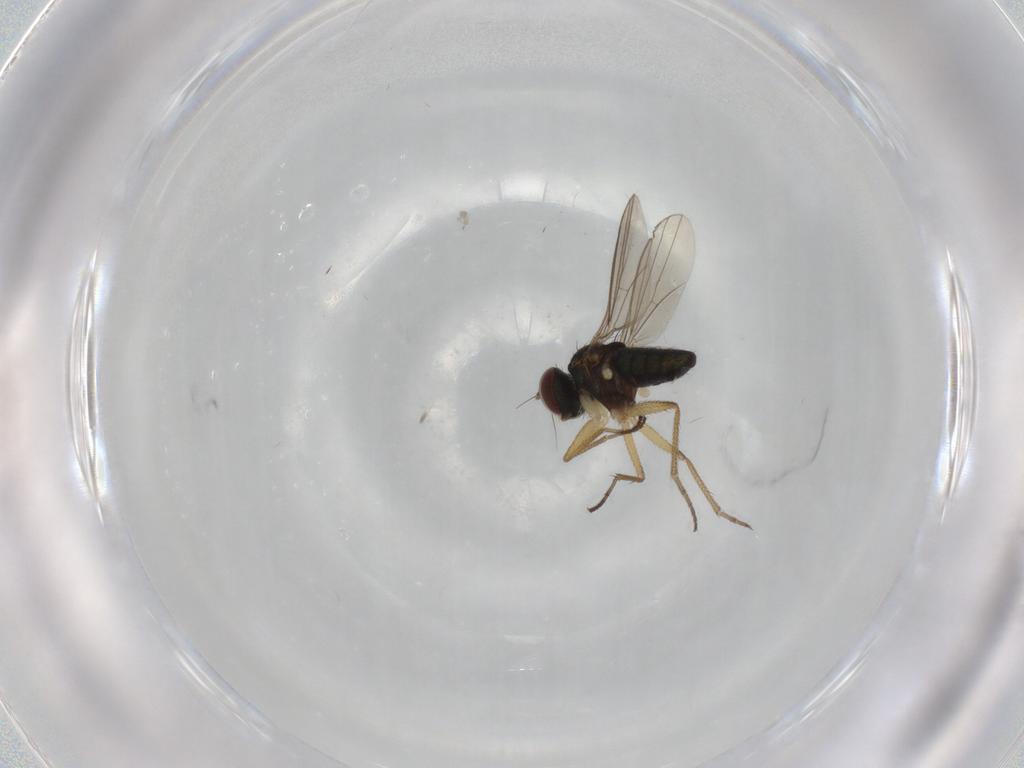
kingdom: Animalia
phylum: Arthropoda
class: Insecta
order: Diptera
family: Dolichopodidae
